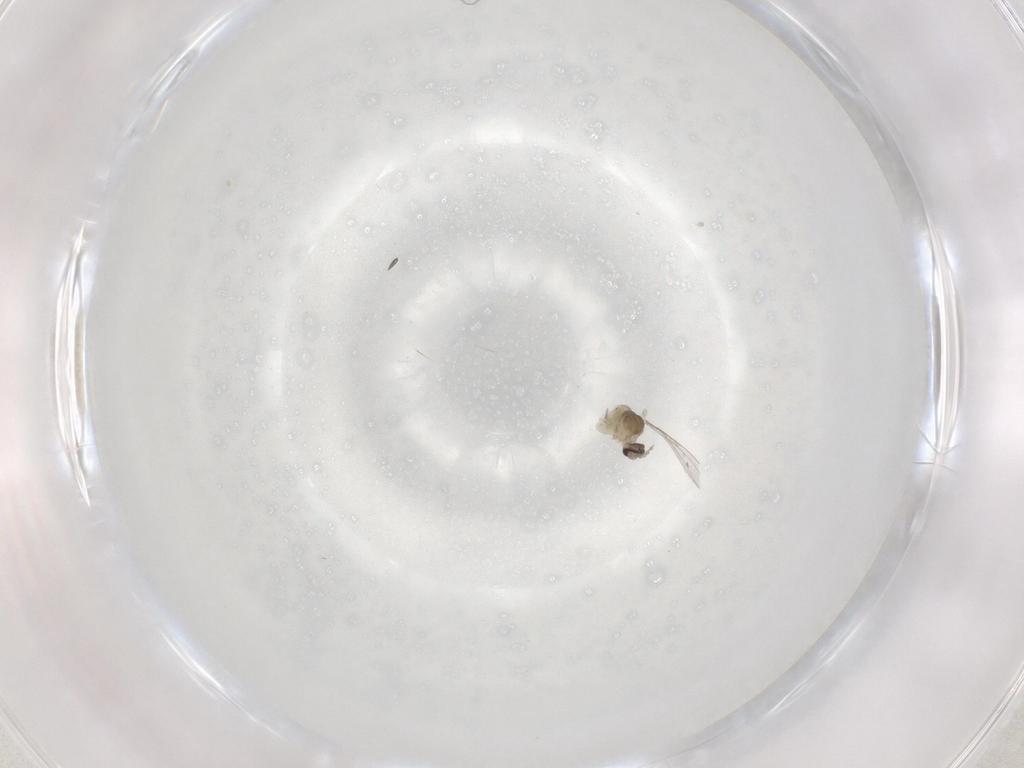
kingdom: Animalia
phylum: Arthropoda
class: Insecta
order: Diptera
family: Cecidomyiidae
